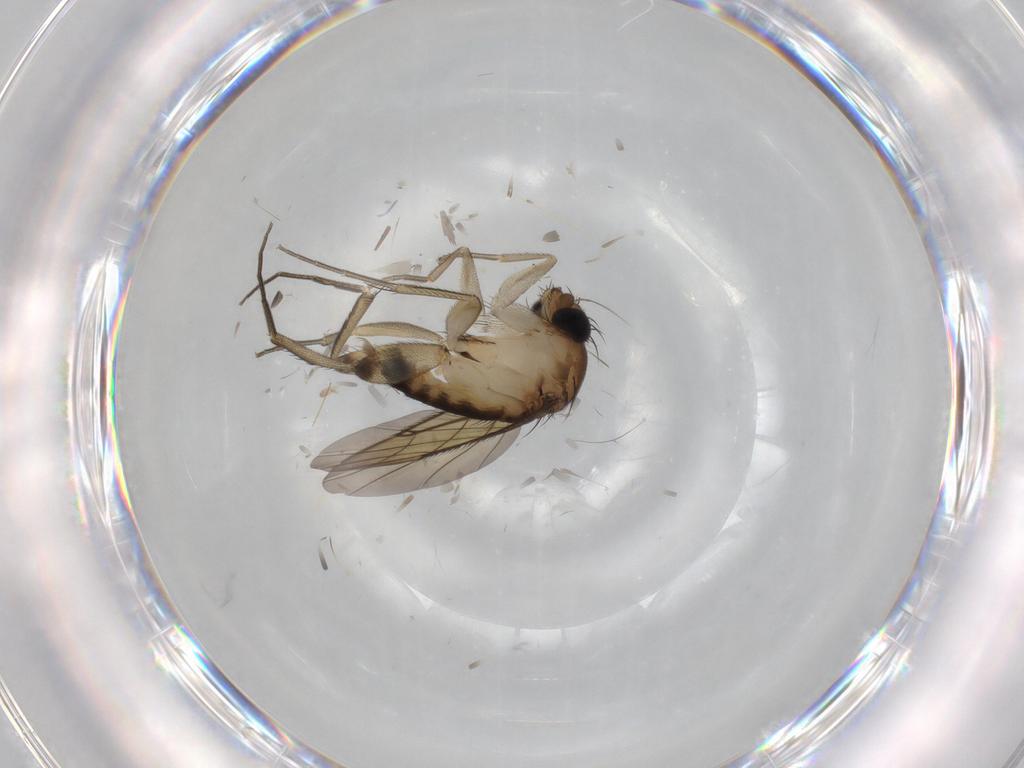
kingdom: Animalia
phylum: Arthropoda
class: Insecta
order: Diptera
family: Phoridae
